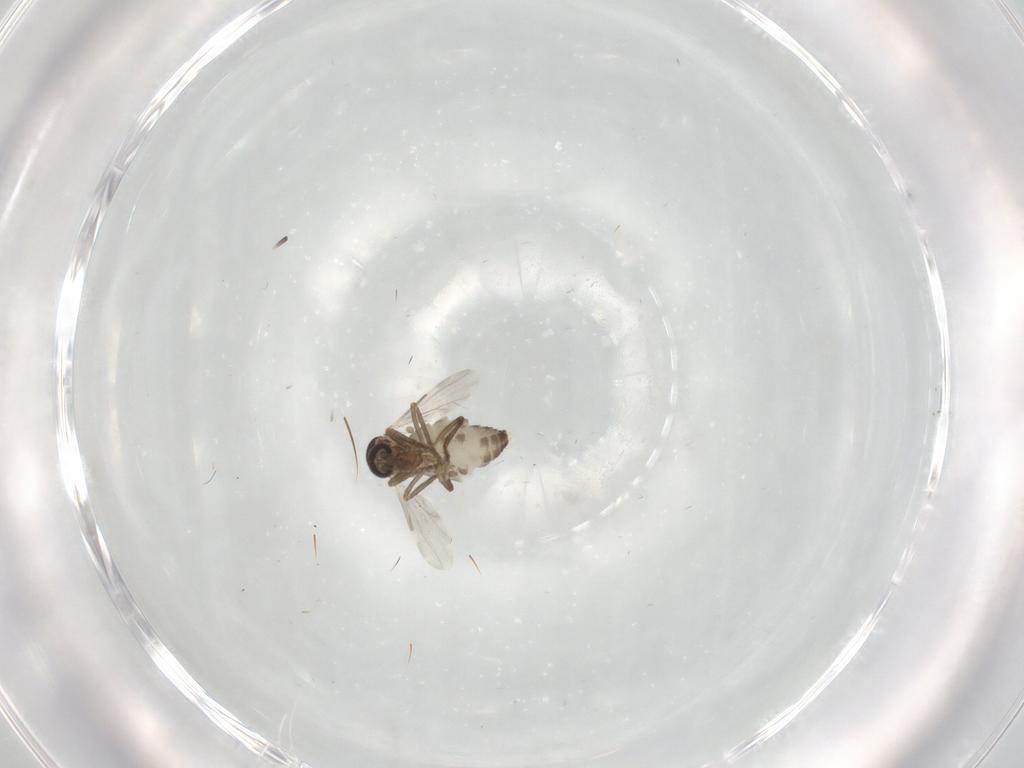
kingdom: Animalia
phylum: Arthropoda
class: Insecta
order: Diptera
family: Ceratopogonidae
